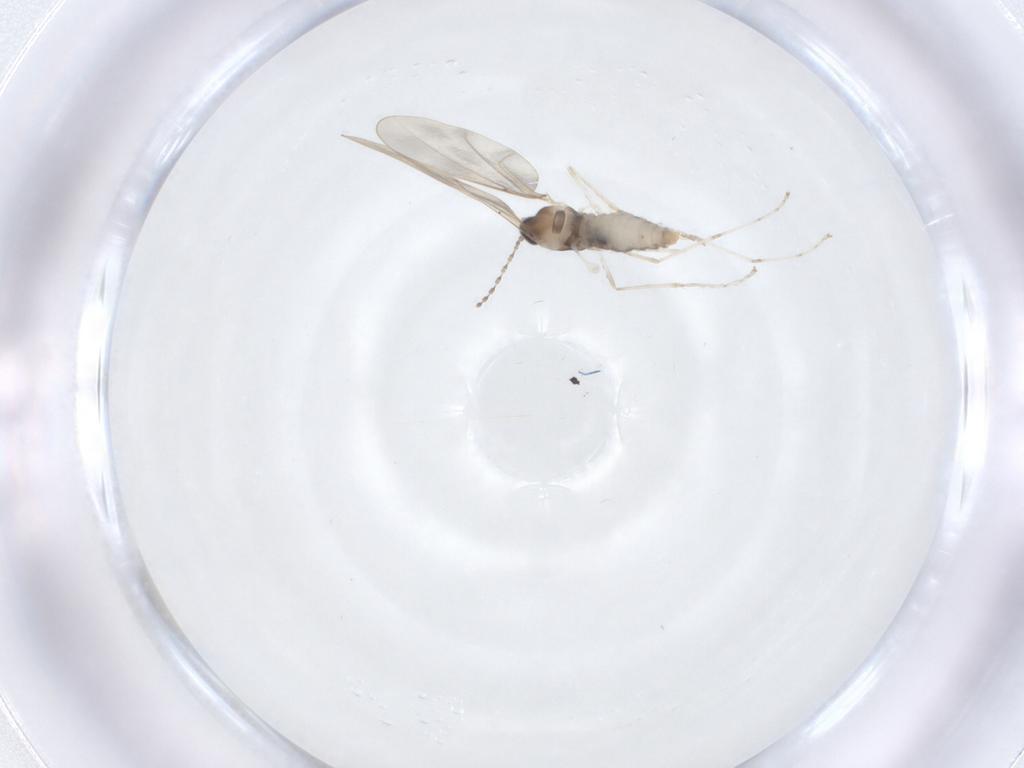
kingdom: Animalia
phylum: Arthropoda
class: Insecta
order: Diptera
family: Cecidomyiidae
